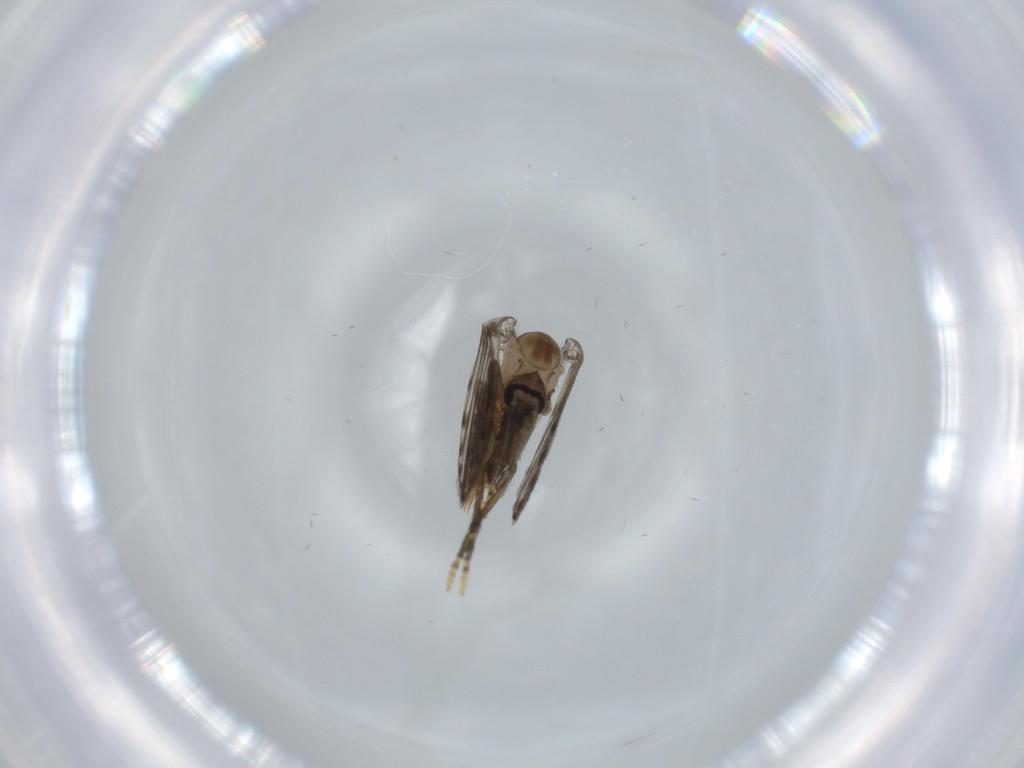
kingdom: Animalia
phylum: Arthropoda
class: Insecta
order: Diptera
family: Psychodidae
